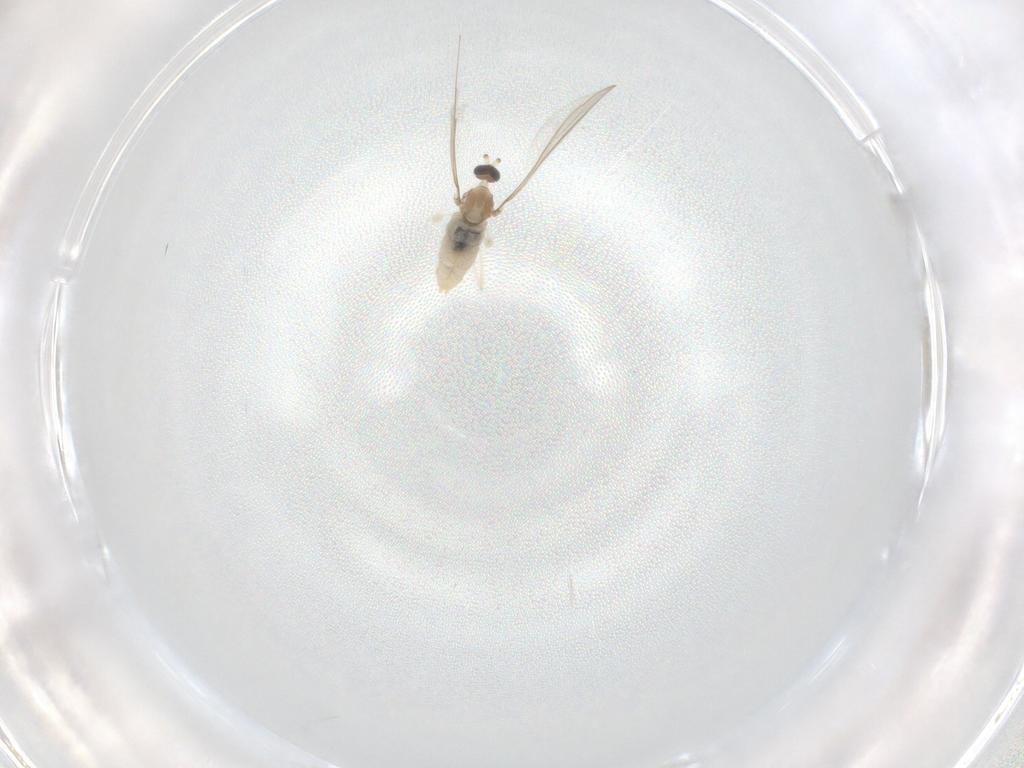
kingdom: Animalia
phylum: Arthropoda
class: Insecta
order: Diptera
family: Cecidomyiidae
